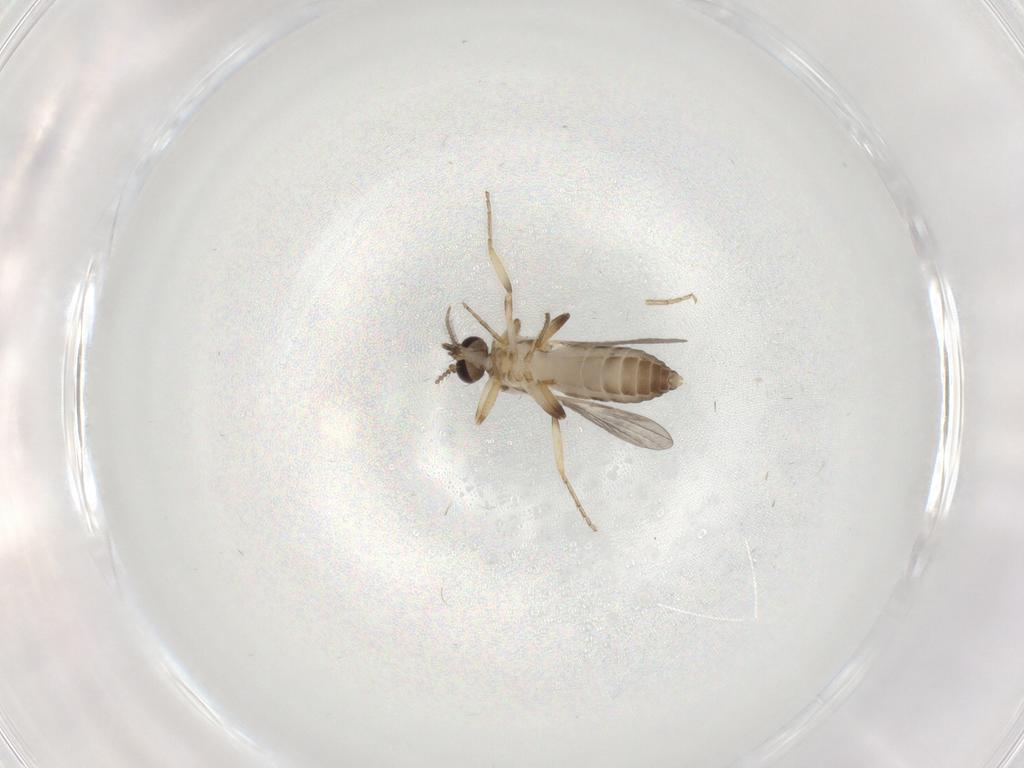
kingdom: Animalia
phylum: Arthropoda
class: Insecta
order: Diptera
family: Ceratopogonidae
